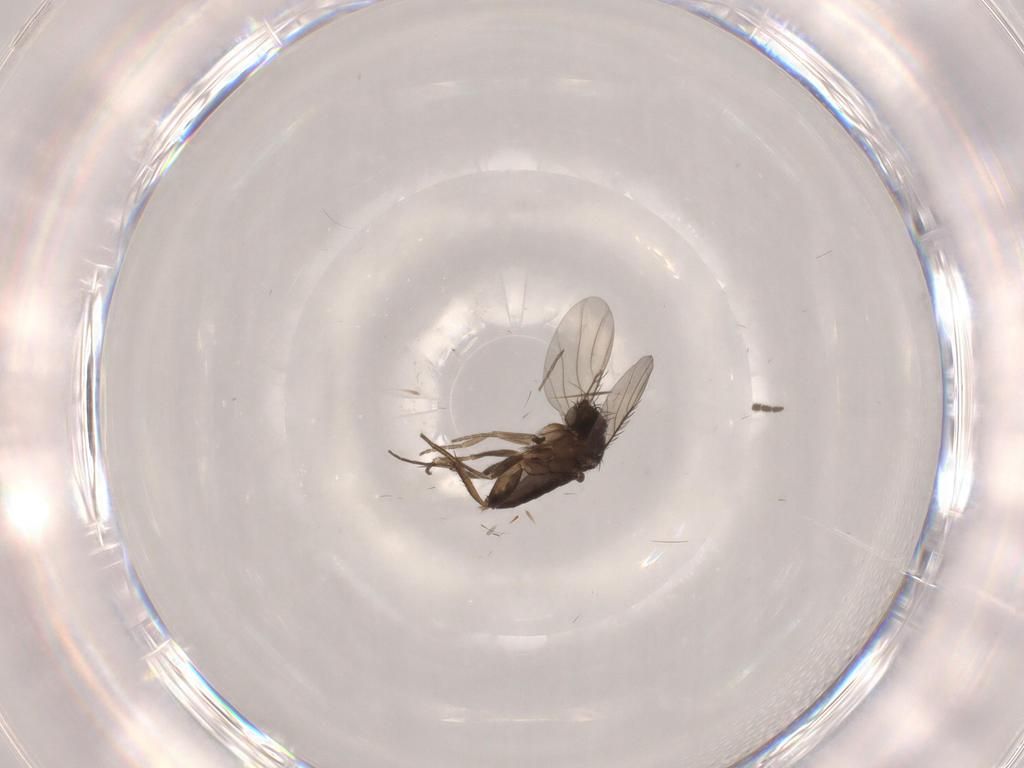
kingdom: Animalia
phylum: Arthropoda
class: Insecta
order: Diptera
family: Phoridae
